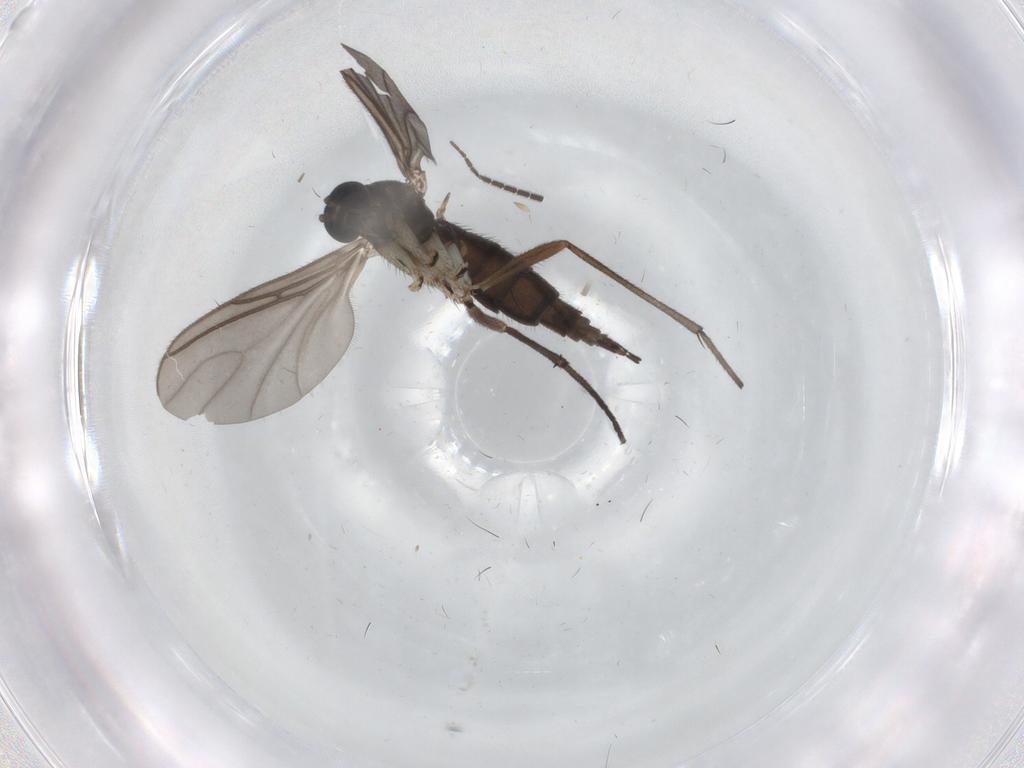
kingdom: Animalia
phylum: Arthropoda
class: Insecta
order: Diptera
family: Sciaridae
